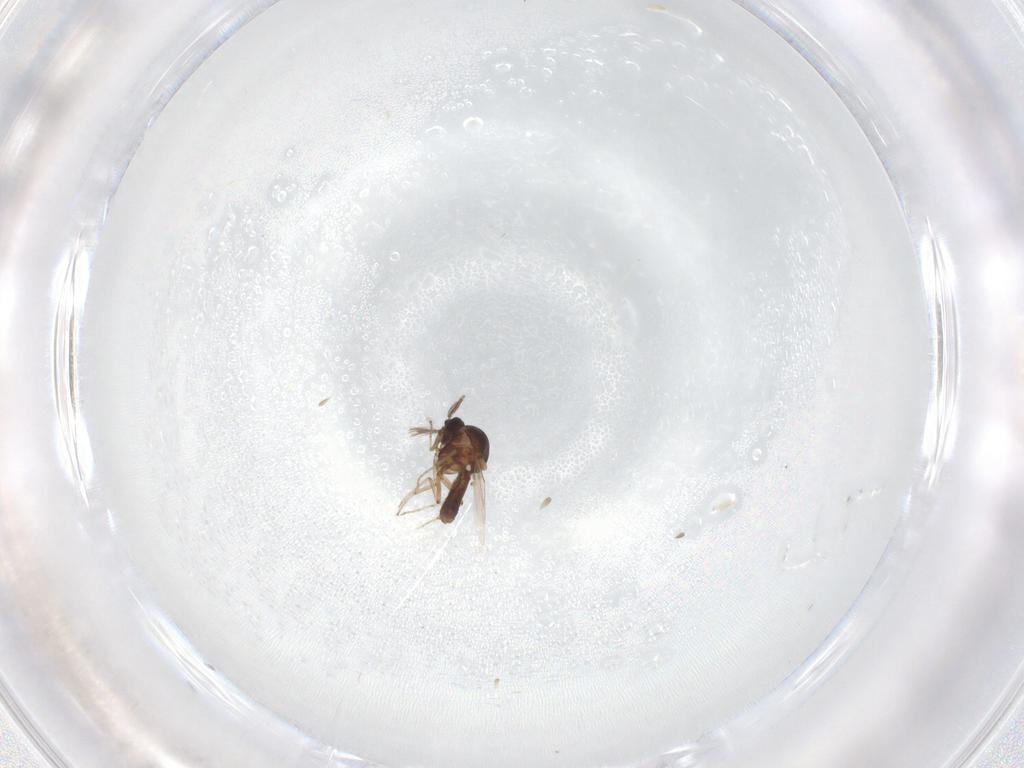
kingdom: Animalia
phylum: Arthropoda
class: Insecta
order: Diptera
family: Ceratopogonidae
